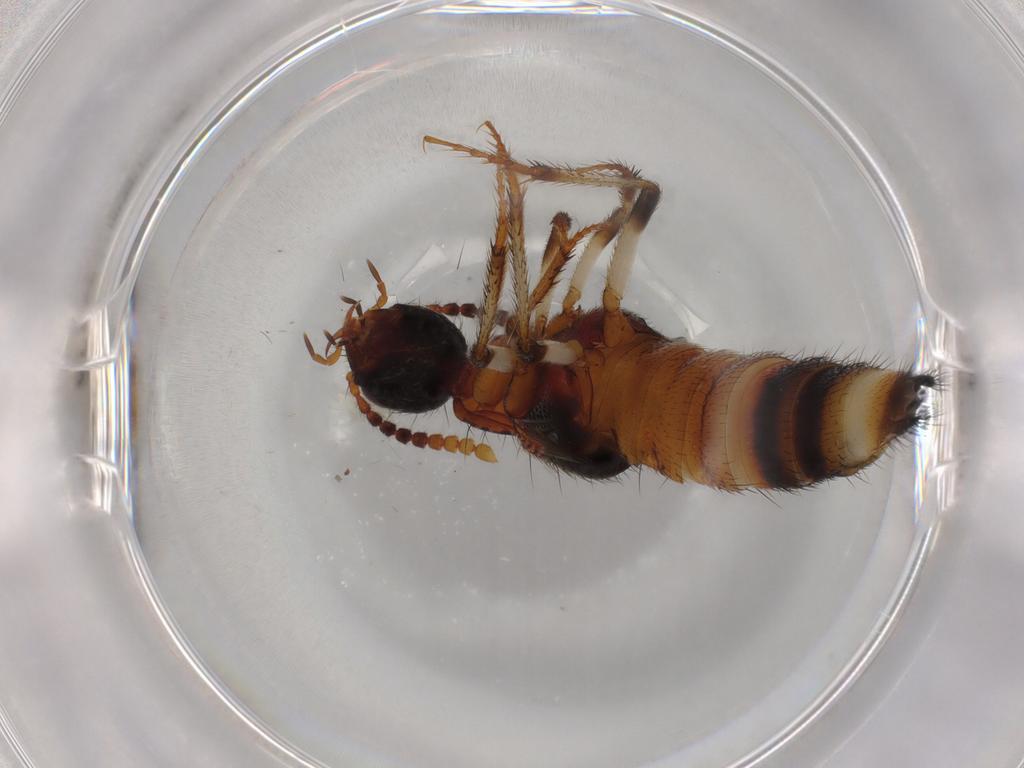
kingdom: Animalia
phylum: Arthropoda
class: Insecta
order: Coleoptera
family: Staphylinidae
